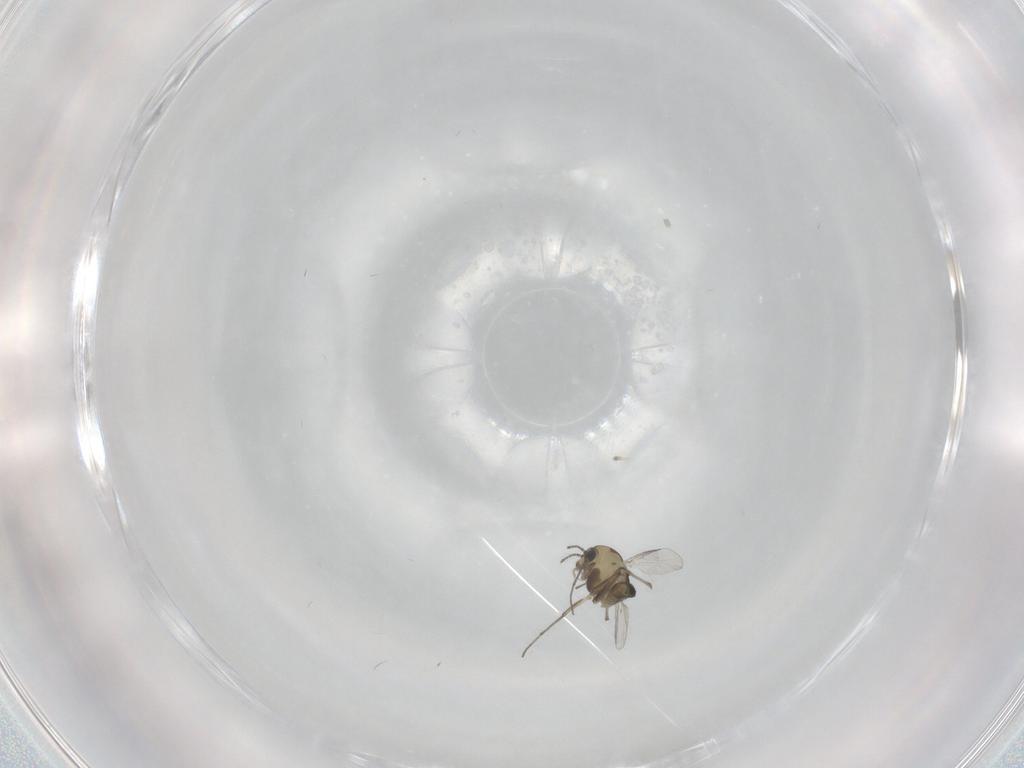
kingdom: Animalia
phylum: Arthropoda
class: Insecta
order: Diptera
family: Chironomidae
